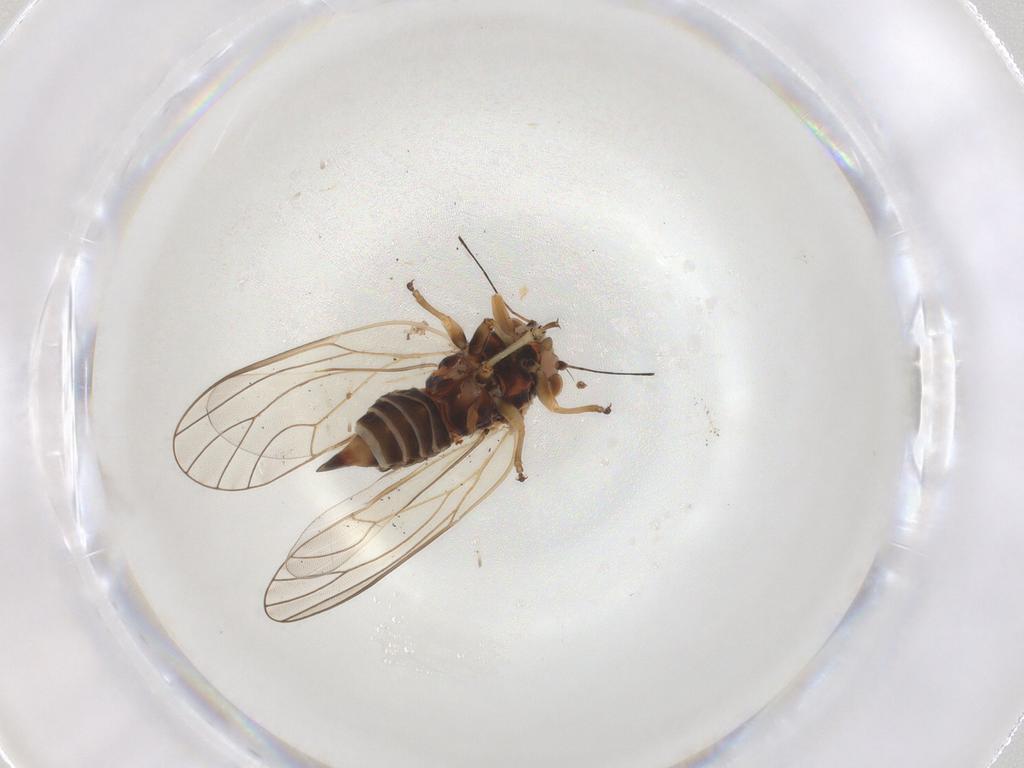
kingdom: Animalia
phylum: Arthropoda
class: Insecta
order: Hemiptera
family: Psyllidae
